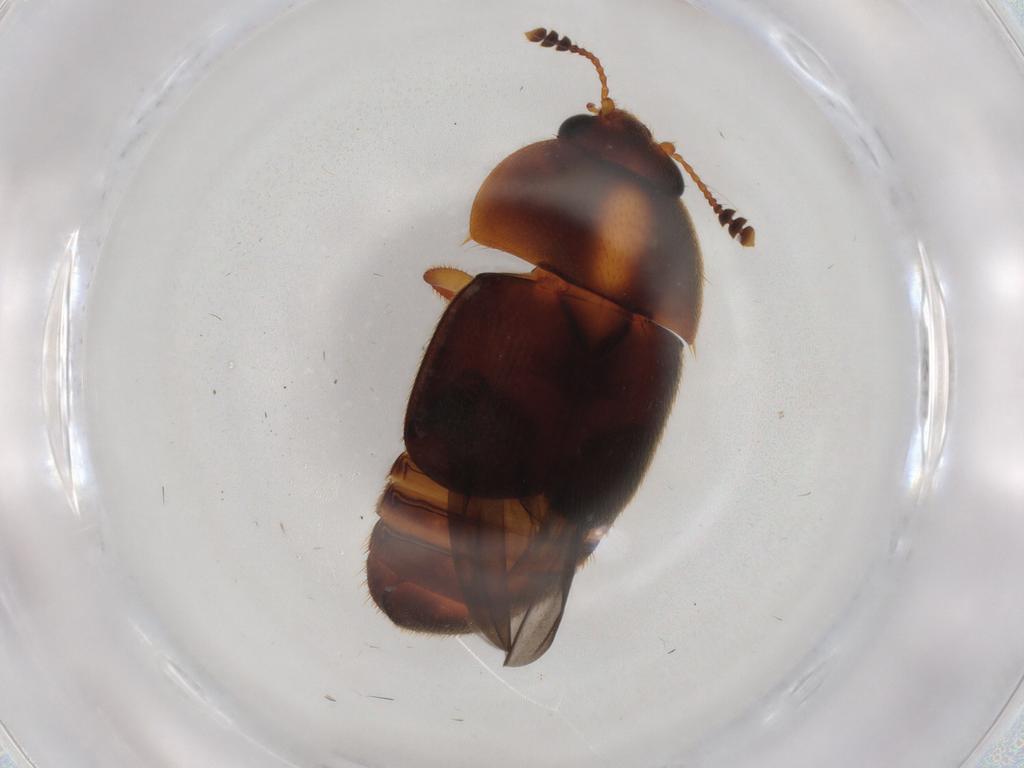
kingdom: Animalia
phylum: Arthropoda
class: Insecta
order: Coleoptera
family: Nitidulidae
